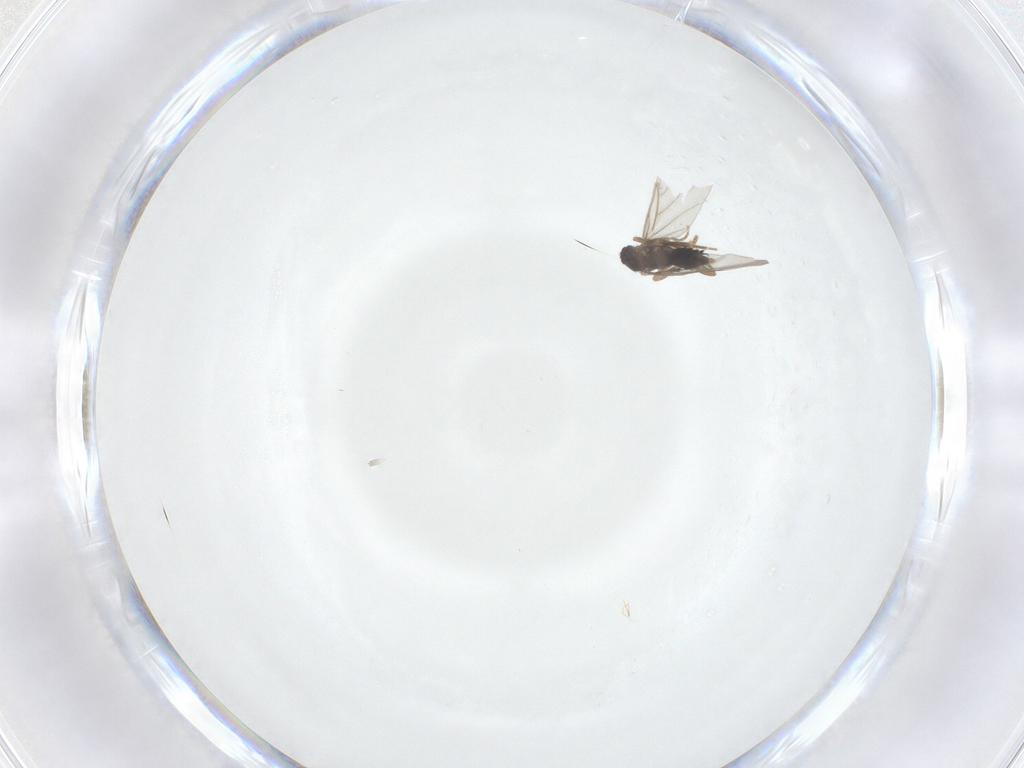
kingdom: Animalia
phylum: Arthropoda
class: Insecta
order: Diptera
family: Phoridae
